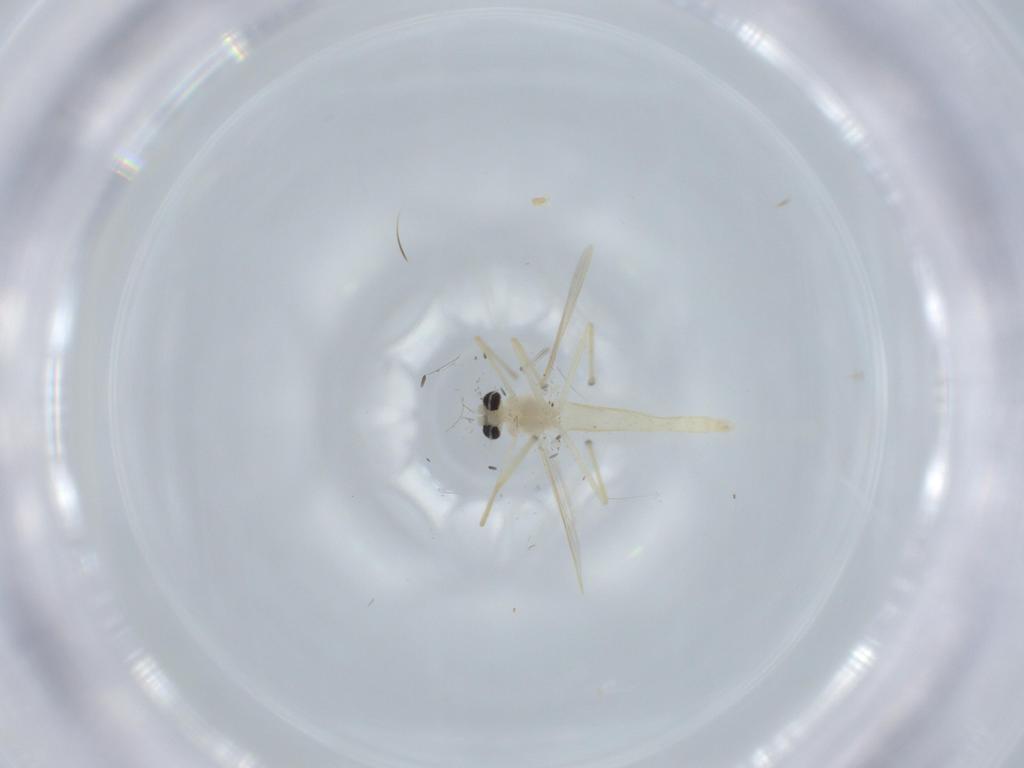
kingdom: Animalia
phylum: Arthropoda
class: Insecta
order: Diptera
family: Chironomidae
